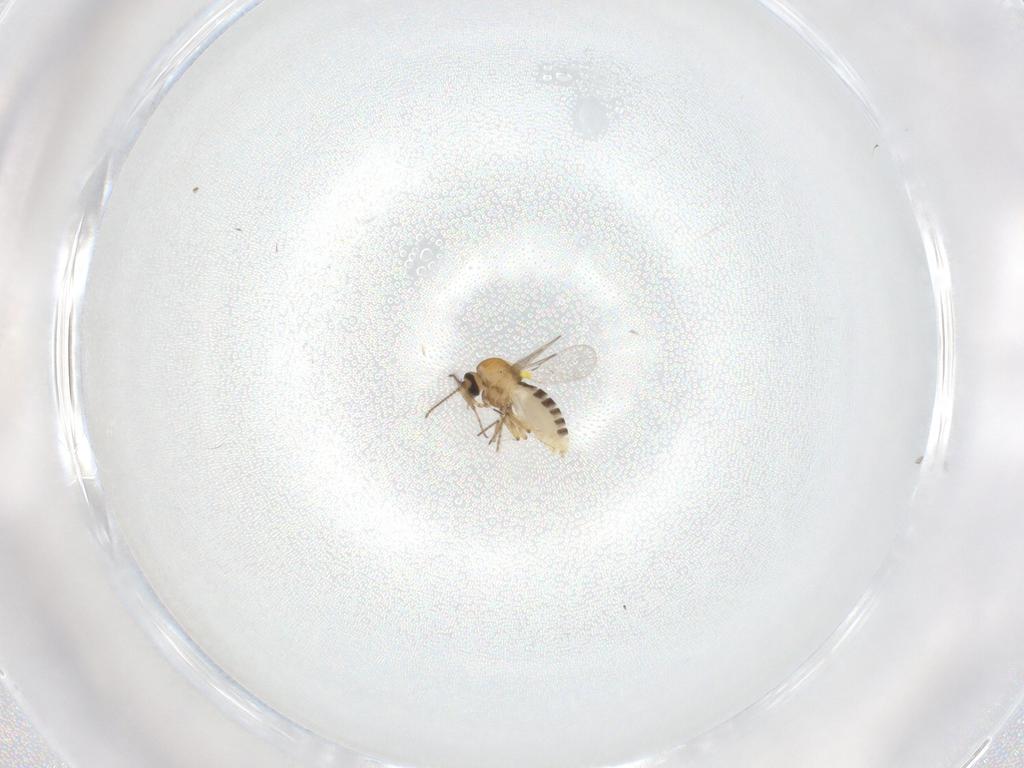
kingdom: Animalia
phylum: Arthropoda
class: Insecta
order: Diptera
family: Ceratopogonidae
